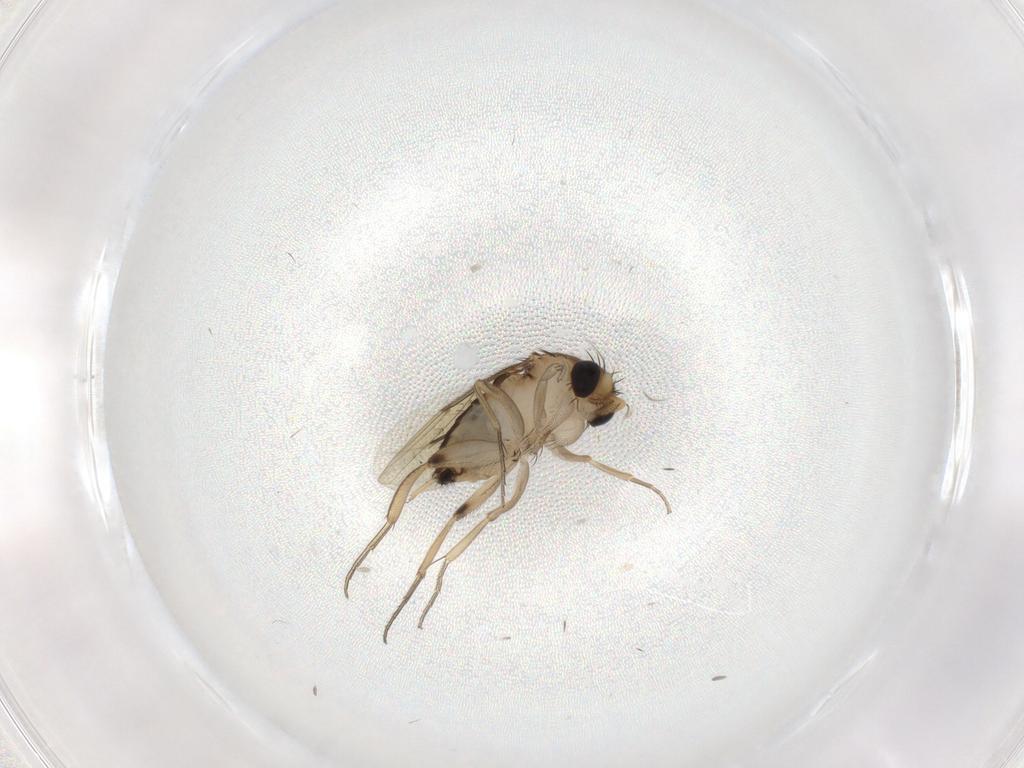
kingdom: Animalia
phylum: Arthropoda
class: Insecta
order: Diptera
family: Phoridae
